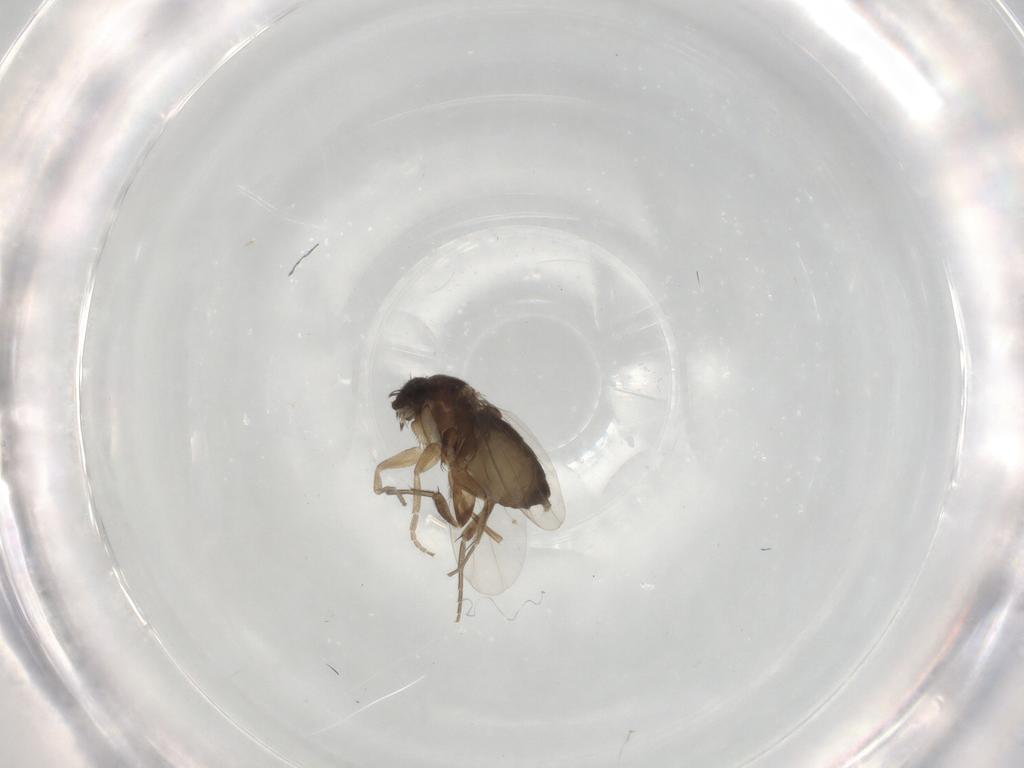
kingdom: Animalia
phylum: Arthropoda
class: Insecta
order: Diptera
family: Phoridae
